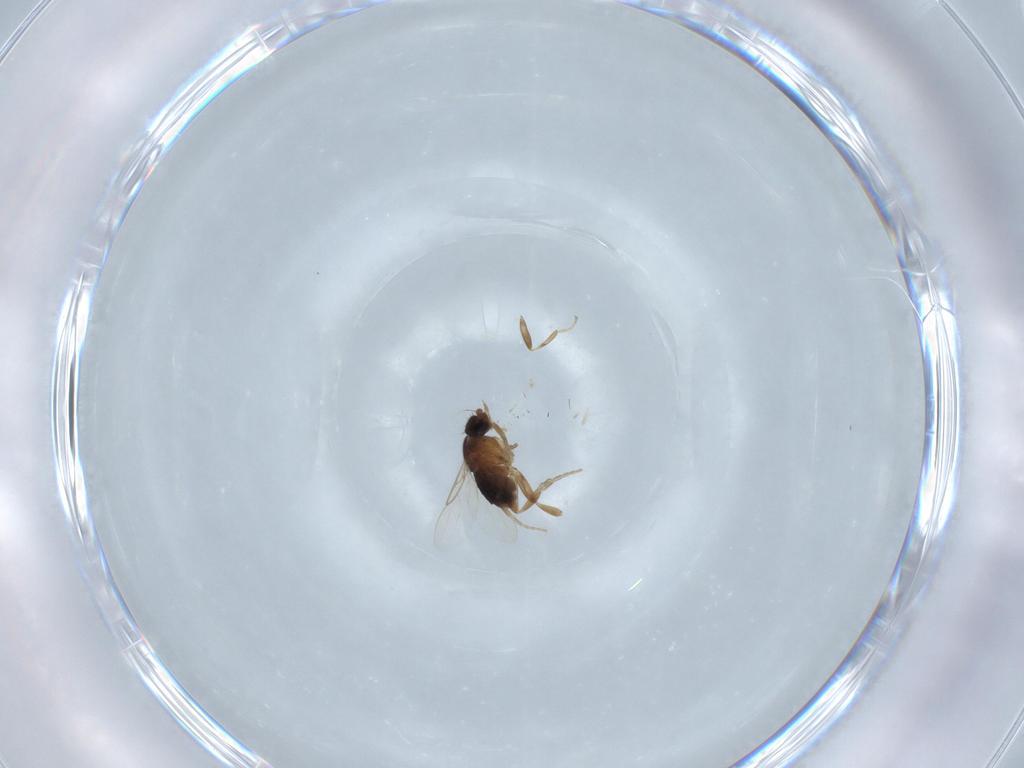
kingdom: Animalia
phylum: Arthropoda
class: Insecta
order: Diptera
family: Phoridae
